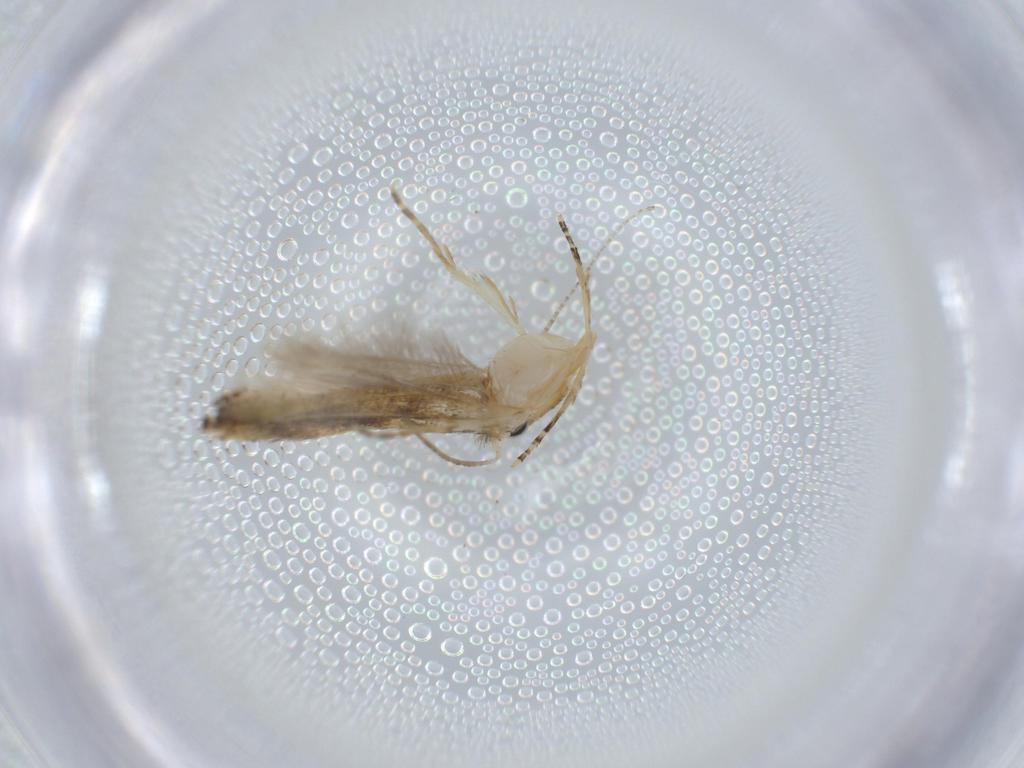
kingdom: Animalia
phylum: Arthropoda
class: Insecta
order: Lepidoptera
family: Bucculatricidae
